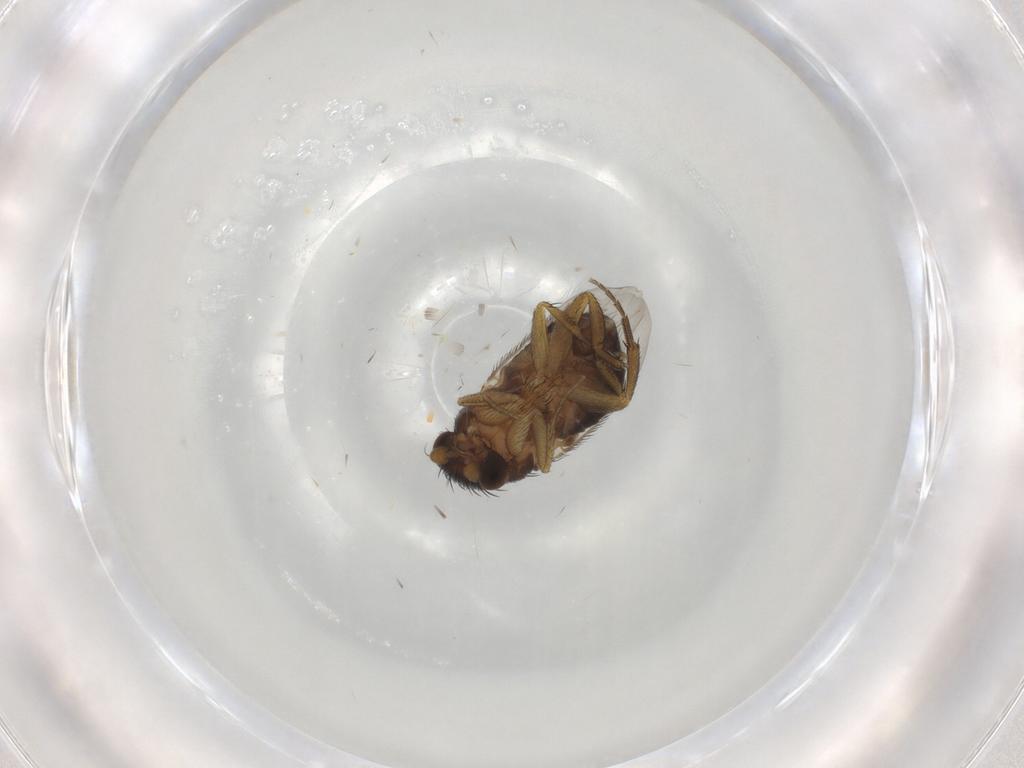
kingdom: Animalia
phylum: Arthropoda
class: Insecta
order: Diptera
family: Phoridae
